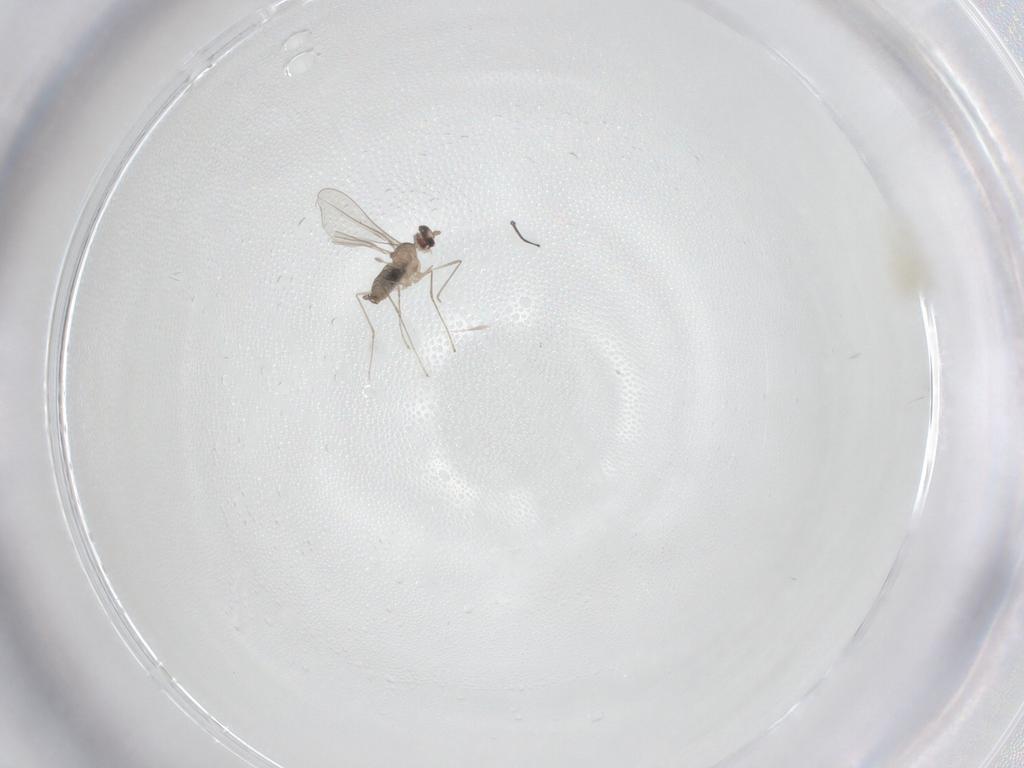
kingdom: Animalia
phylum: Arthropoda
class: Insecta
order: Diptera
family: Cecidomyiidae
